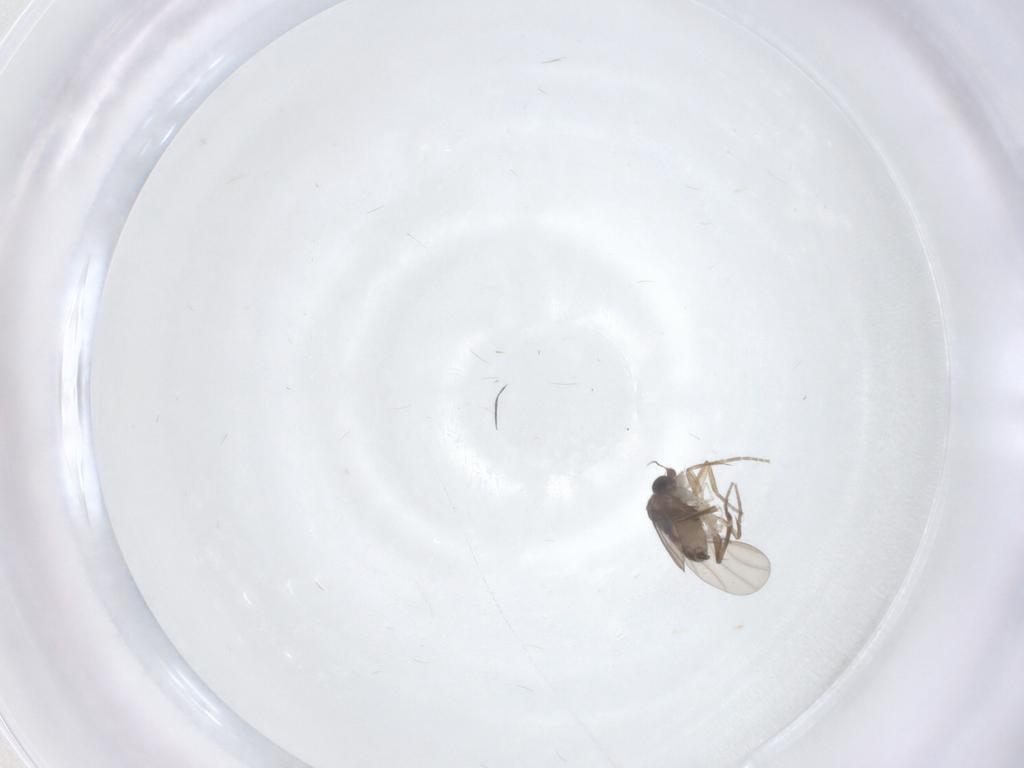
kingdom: Animalia
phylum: Arthropoda
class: Insecta
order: Diptera
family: Phoridae
